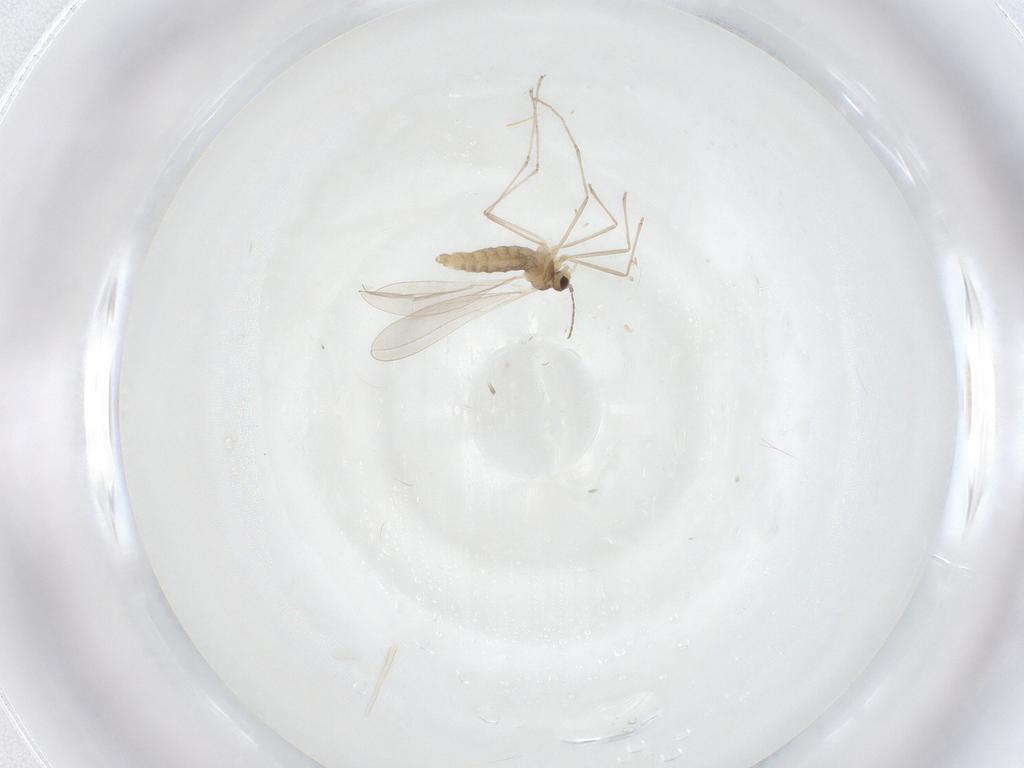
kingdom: Animalia
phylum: Arthropoda
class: Insecta
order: Diptera
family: Cecidomyiidae
